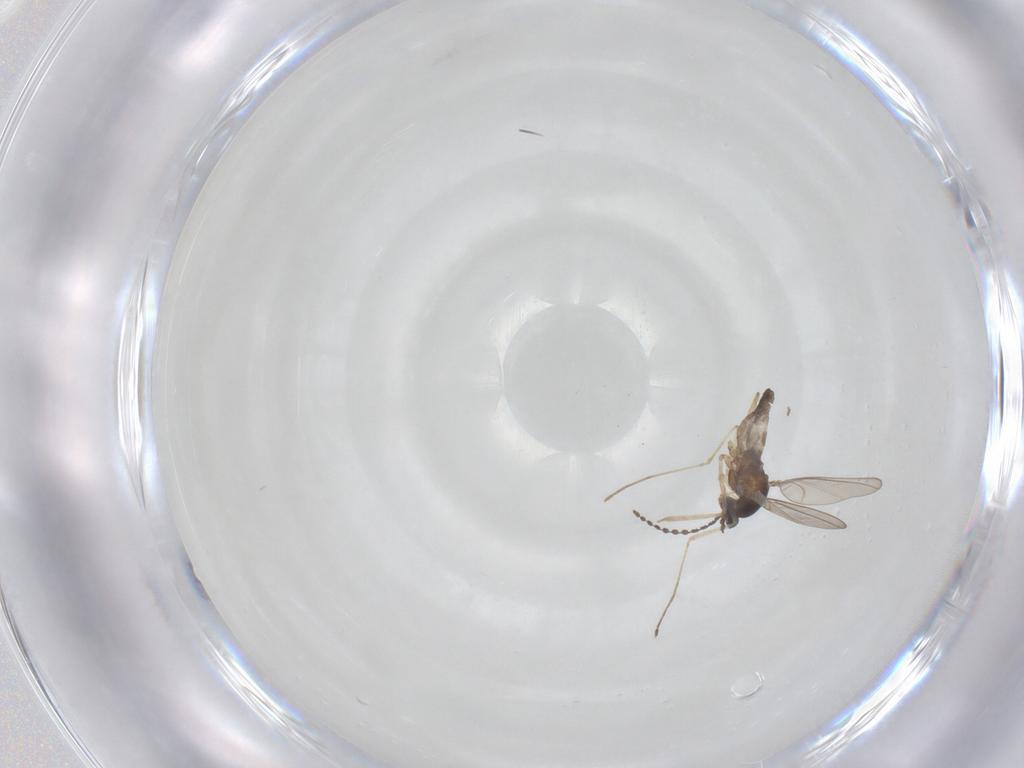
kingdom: Animalia
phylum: Arthropoda
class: Insecta
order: Diptera
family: Cecidomyiidae
